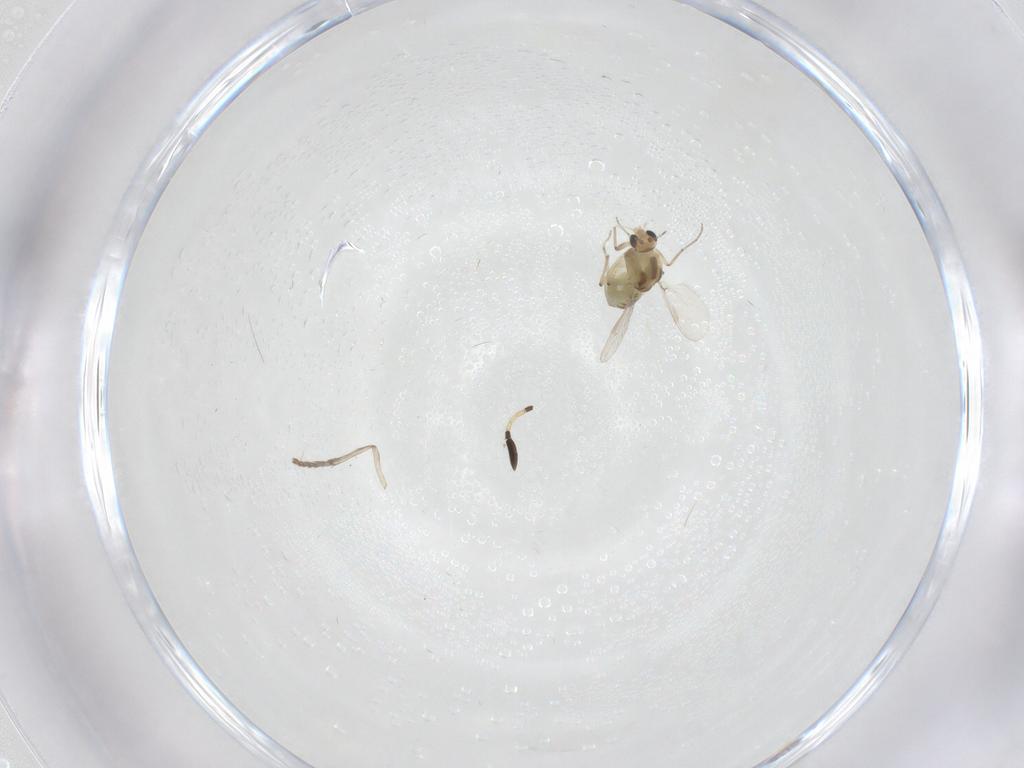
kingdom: Animalia
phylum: Arthropoda
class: Insecta
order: Diptera
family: Chironomidae
